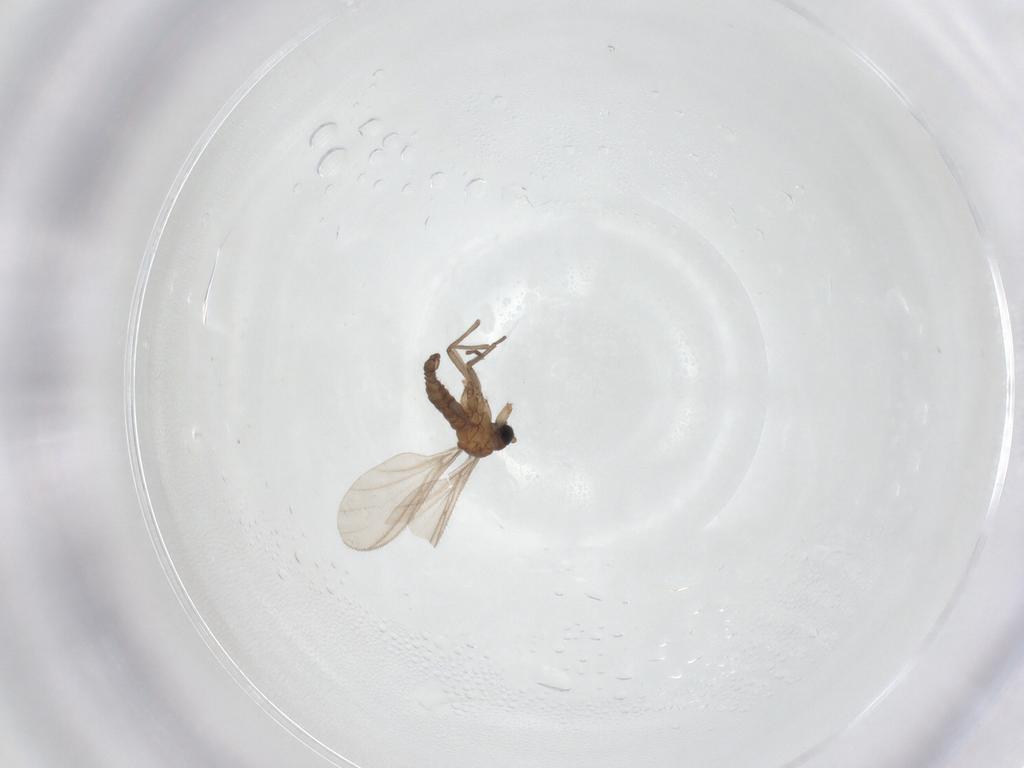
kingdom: Animalia
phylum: Arthropoda
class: Insecta
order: Diptera
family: Sciaridae
